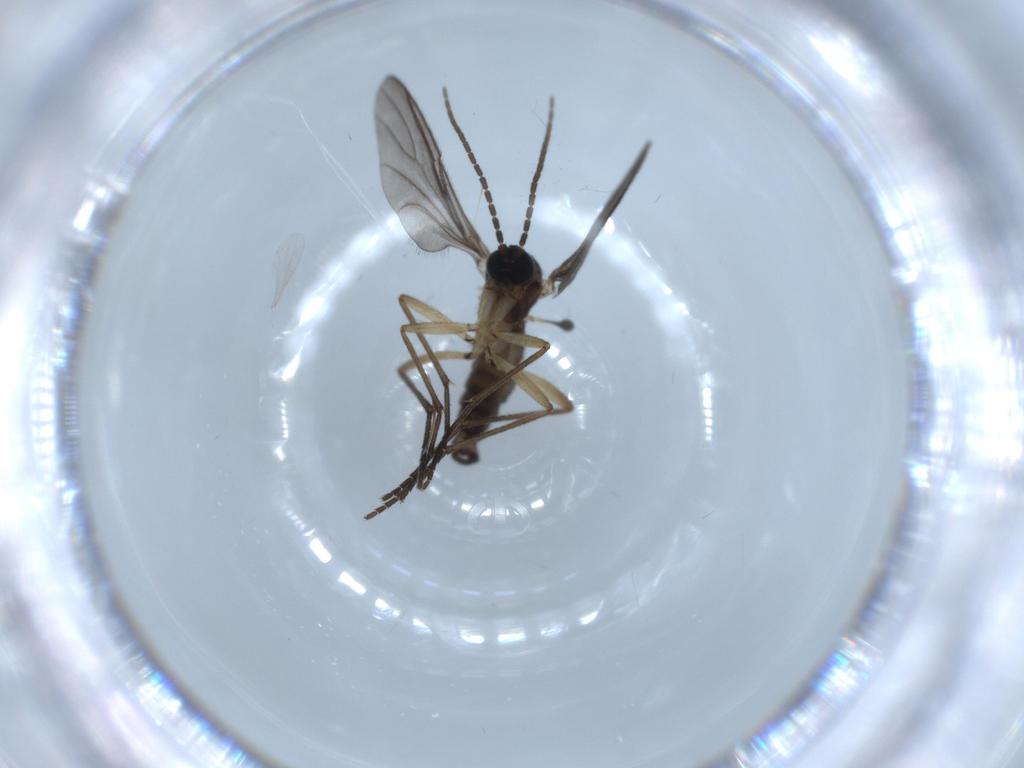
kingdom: Animalia
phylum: Arthropoda
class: Insecta
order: Diptera
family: Sciaridae
